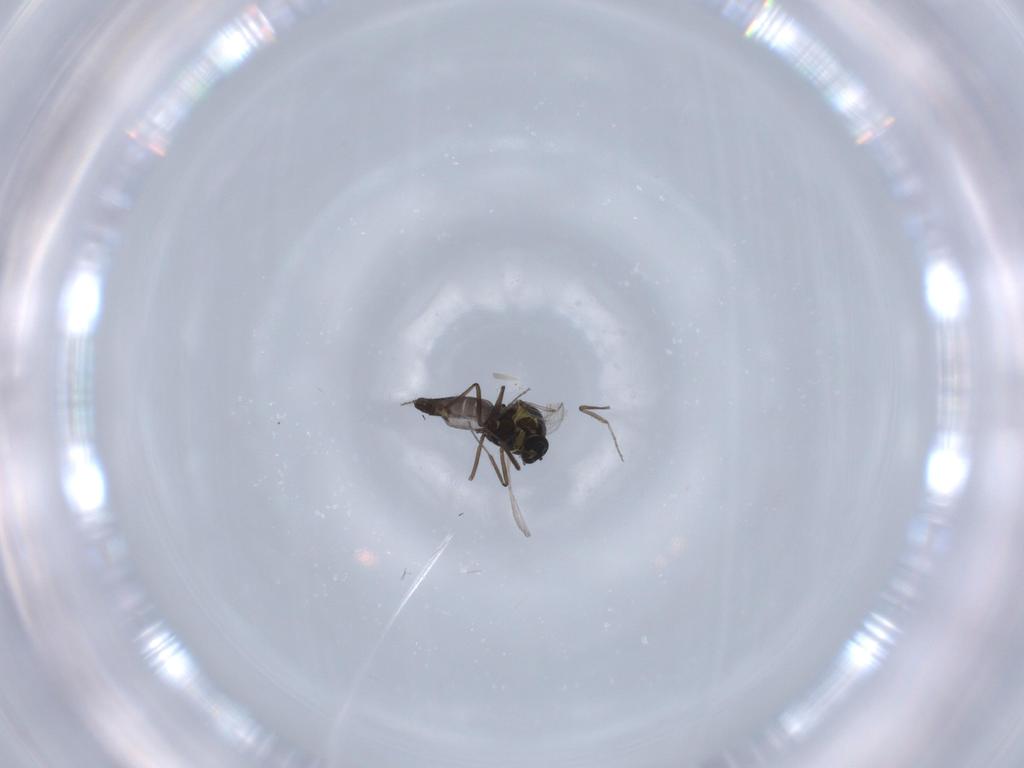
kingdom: Animalia
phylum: Arthropoda
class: Insecta
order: Diptera
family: Ceratopogonidae
